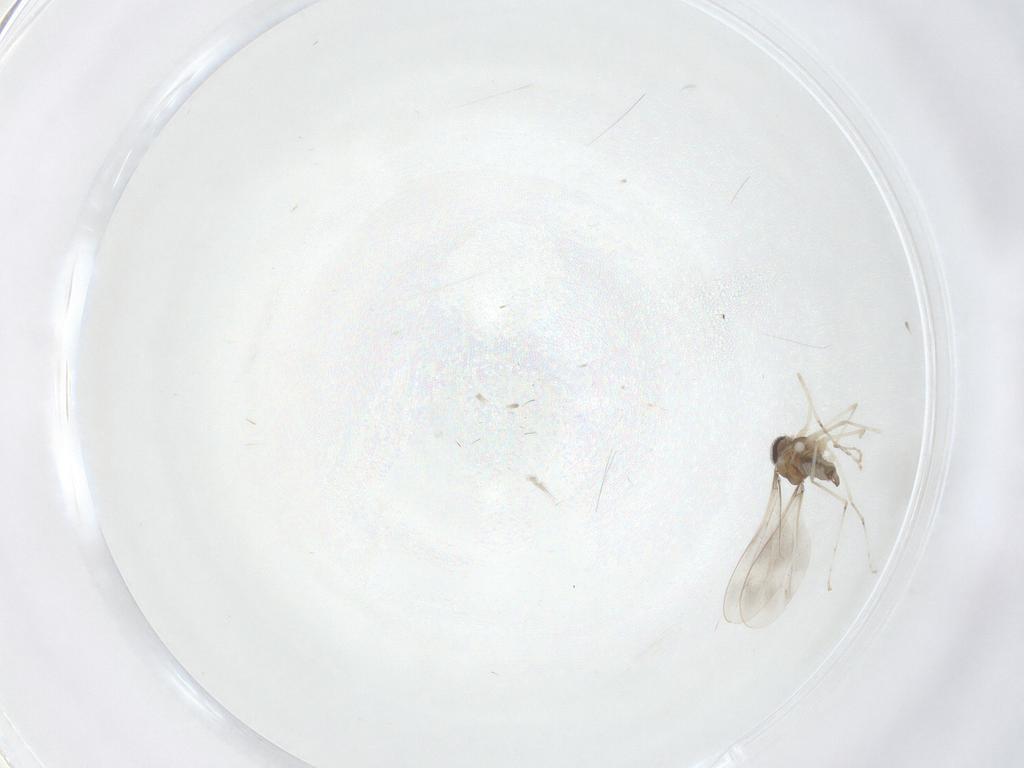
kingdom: Animalia
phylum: Arthropoda
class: Insecta
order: Diptera
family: Cecidomyiidae
